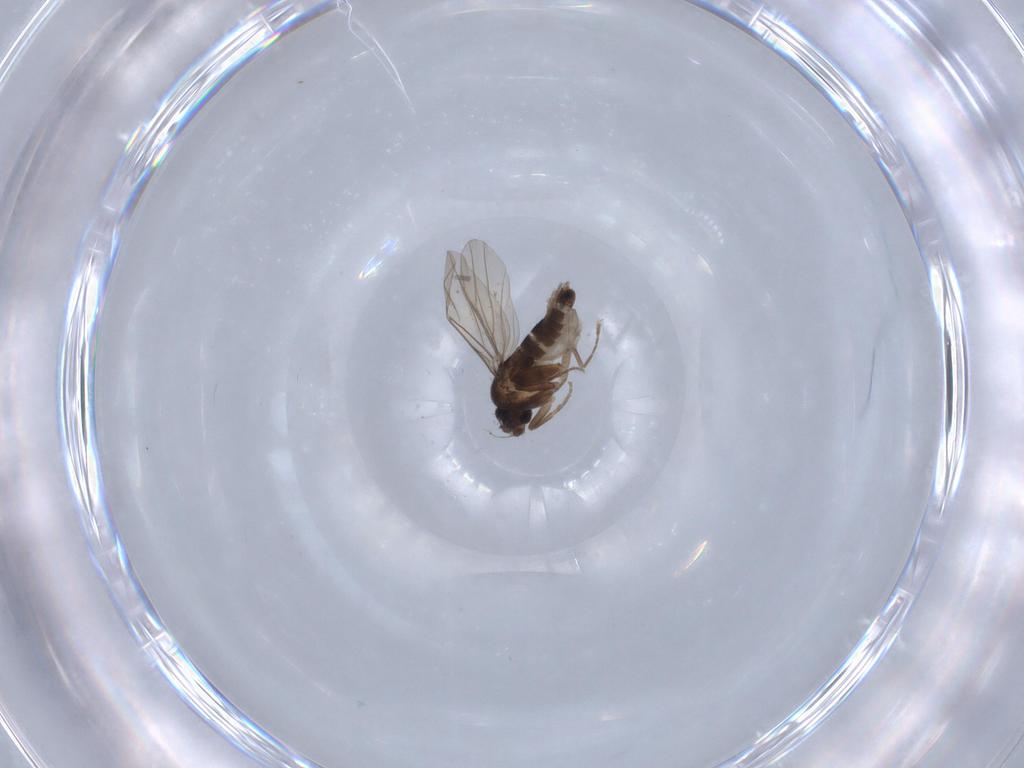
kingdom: Animalia
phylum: Arthropoda
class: Insecta
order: Diptera
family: Phoridae
